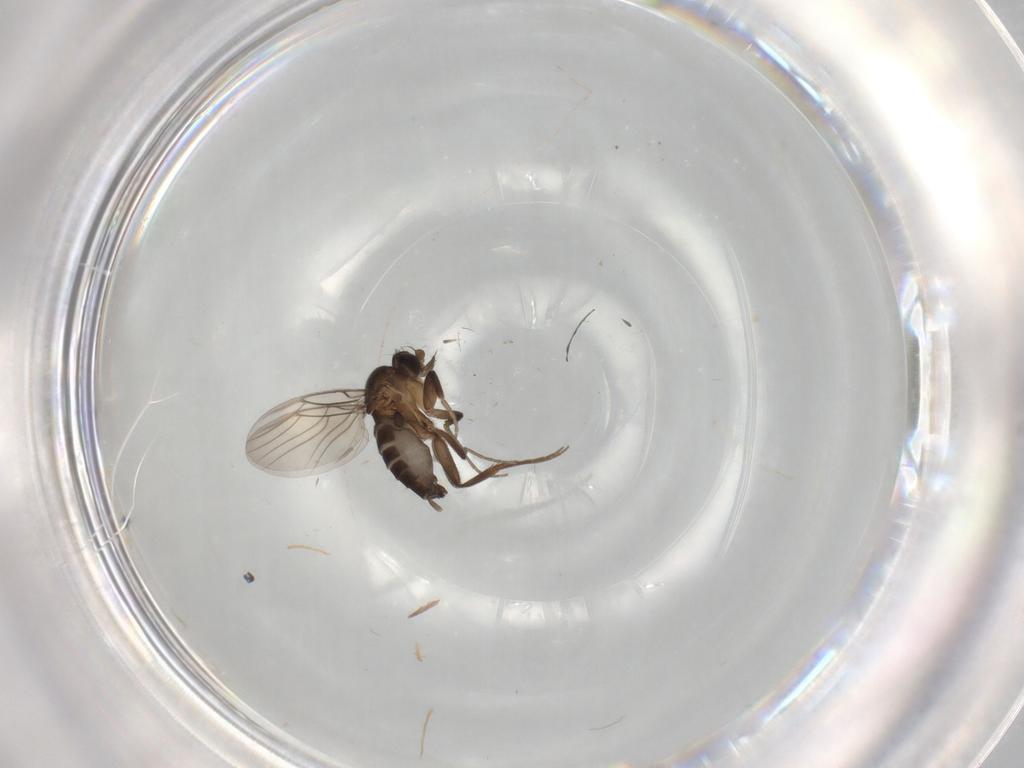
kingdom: Animalia
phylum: Arthropoda
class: Insecta
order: Diptera
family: Phoridae
